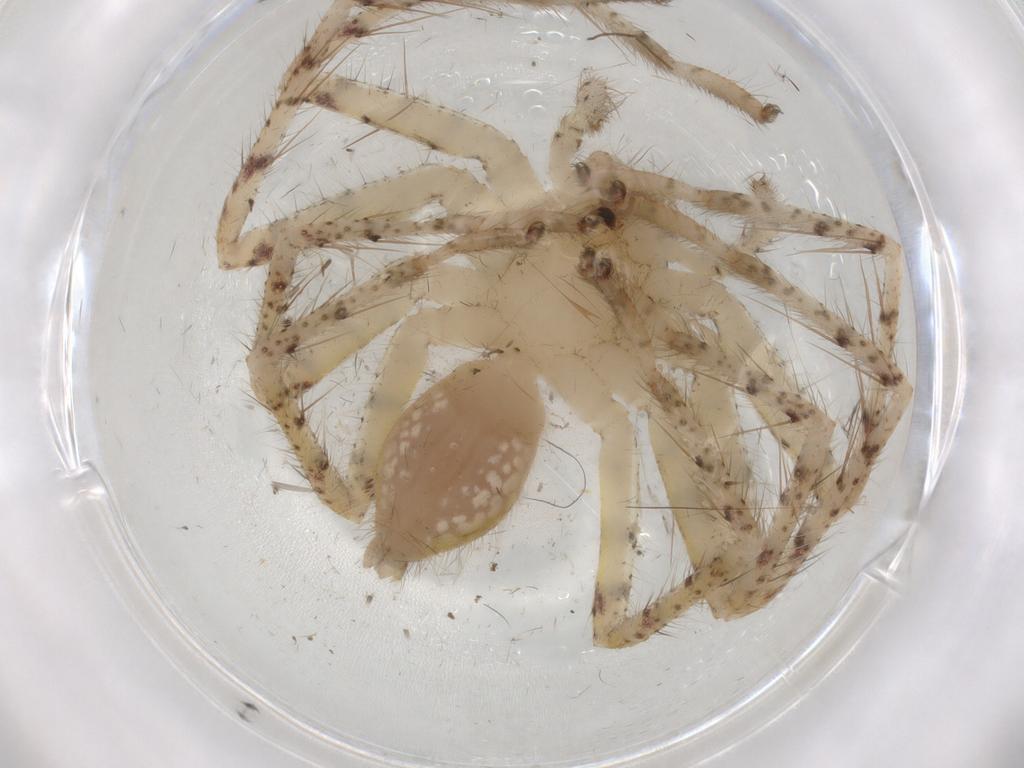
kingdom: Animalia
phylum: Arthropoda
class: Arachnida
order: Araneae
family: Sparassidae
